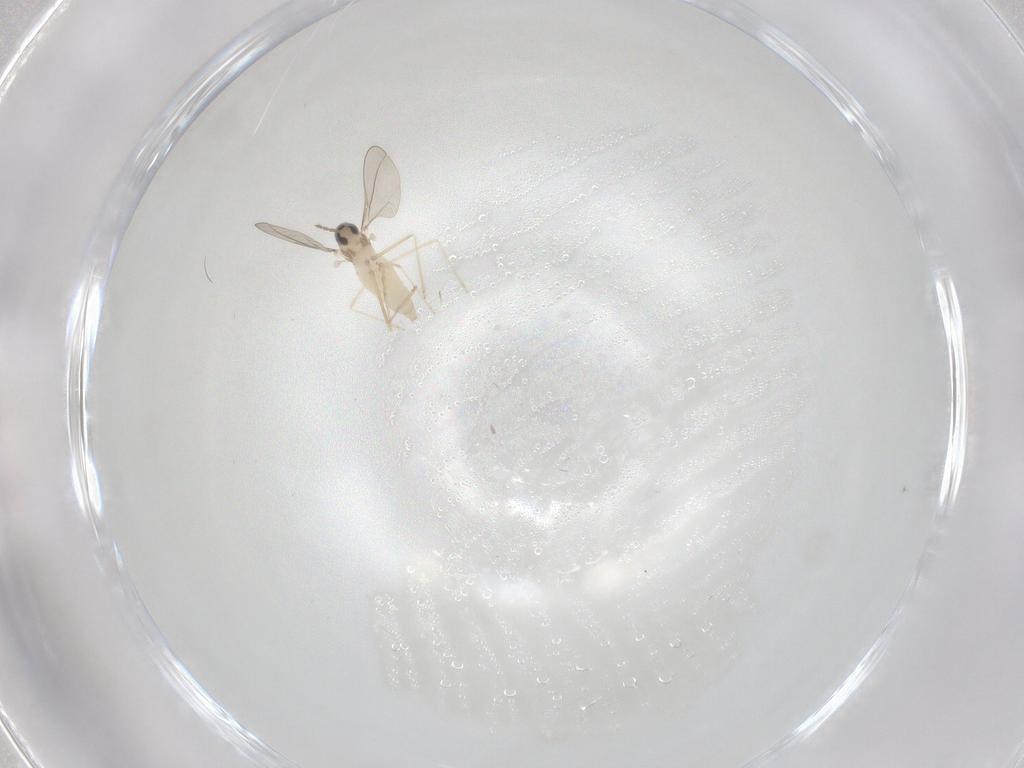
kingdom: Animalia
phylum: Arthropoda
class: Insecta
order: Diptera
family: Cecidomyiidae
